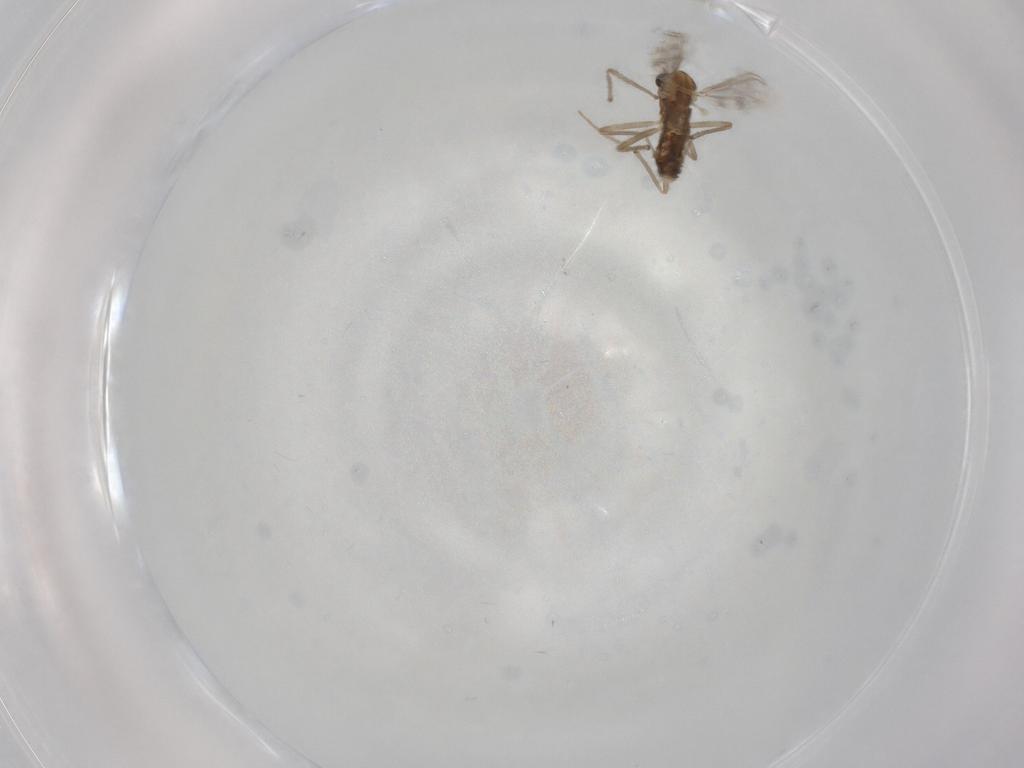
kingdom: Animalia
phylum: Arthropoda
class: Insecta
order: Diptera
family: Chironomidae
